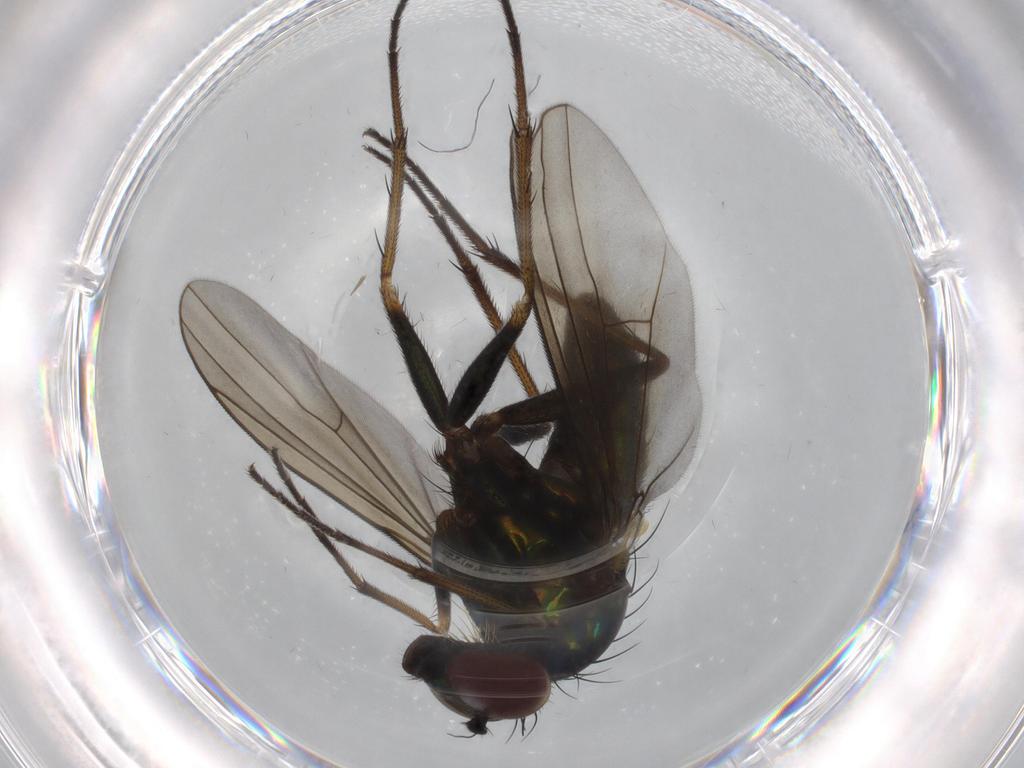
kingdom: Animalia
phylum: Arthropoda
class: Insecta
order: Diptera
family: Dolichopodidae
